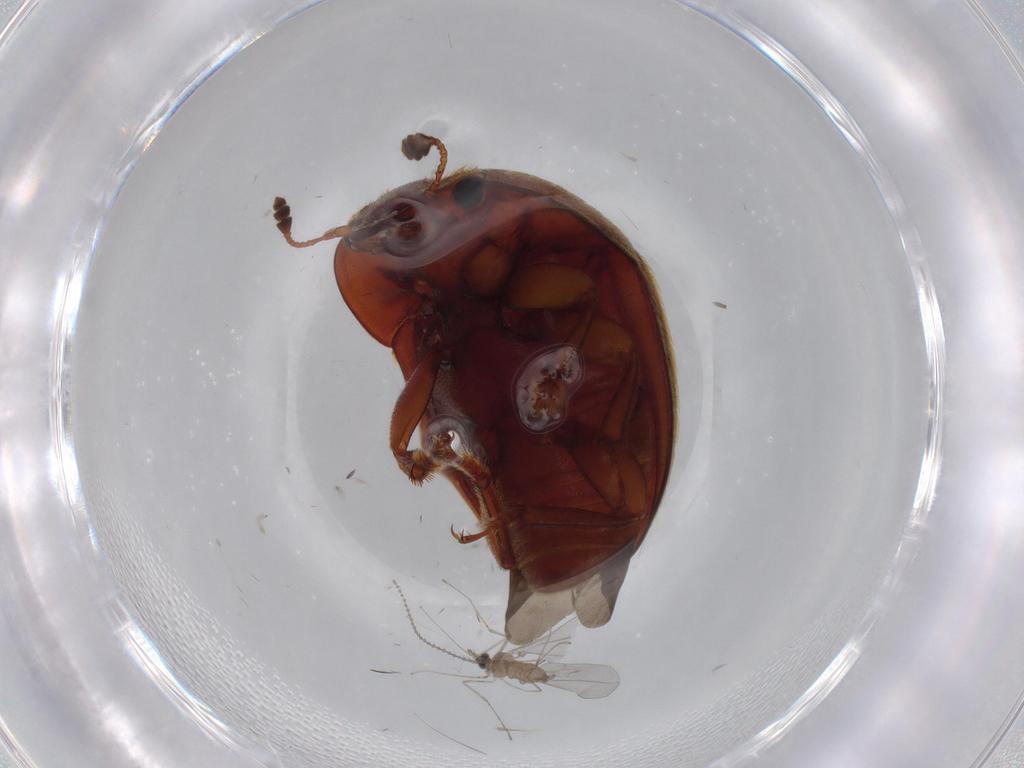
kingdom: Animalia
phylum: Arthropoda
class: Insecta
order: Coleoptera
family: Nitidulidae
